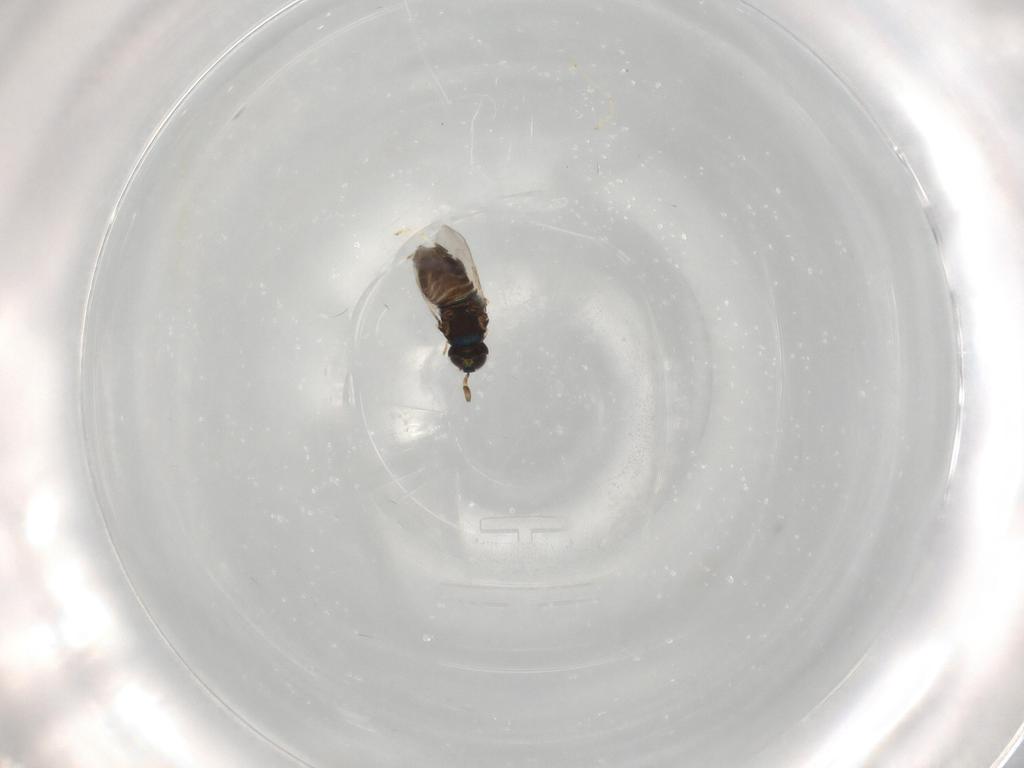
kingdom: Animalia
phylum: Arthropoda
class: Insecta
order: Diptera
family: Cecidomyiidae
